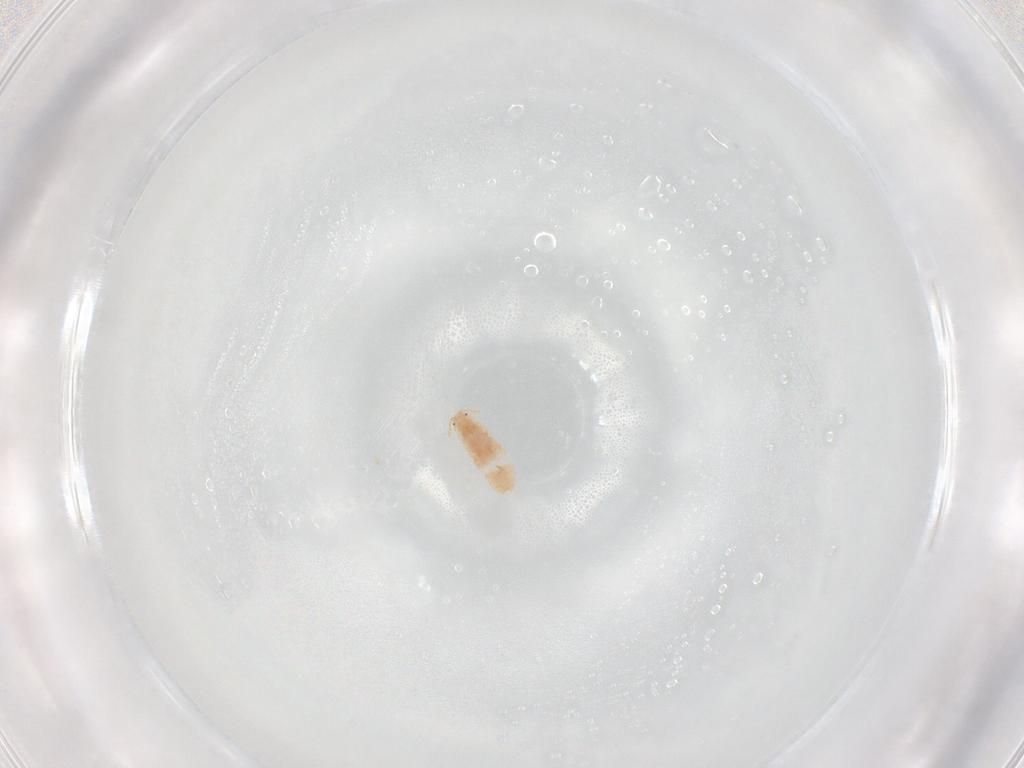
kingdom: Animalia
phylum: Arthropoda
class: Insecta
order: Hemiptera
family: Coccoidea_incertae_sedis
